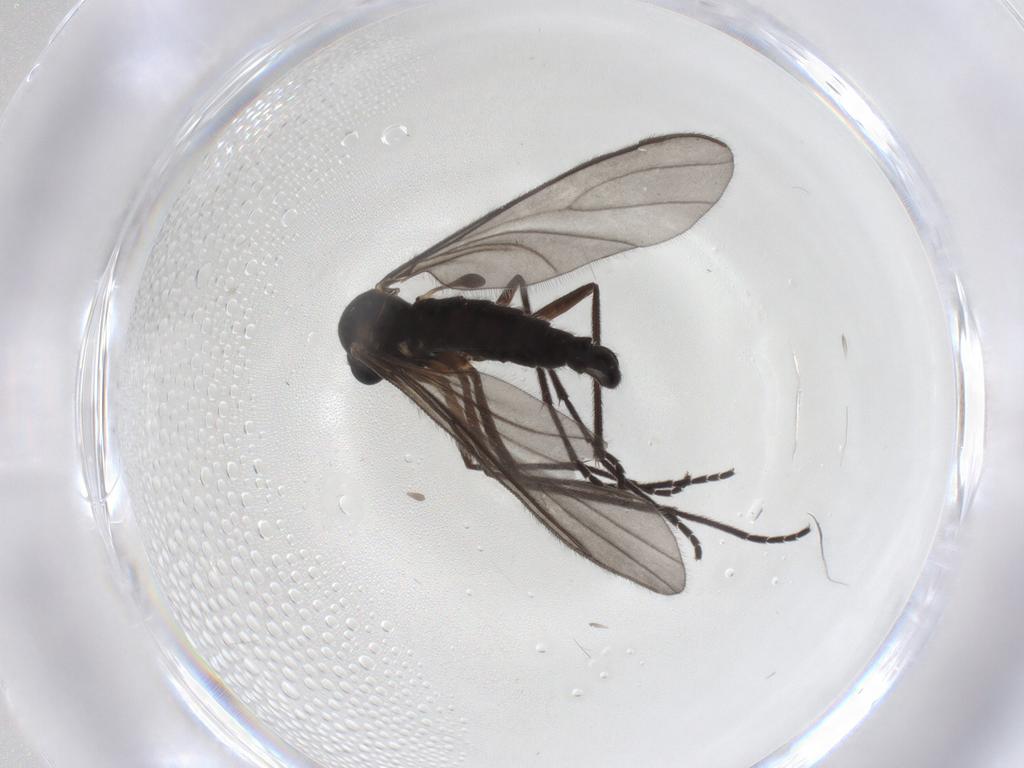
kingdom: Animalia
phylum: Arthropoda
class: Insecta
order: Diptera
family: Sciaridae
